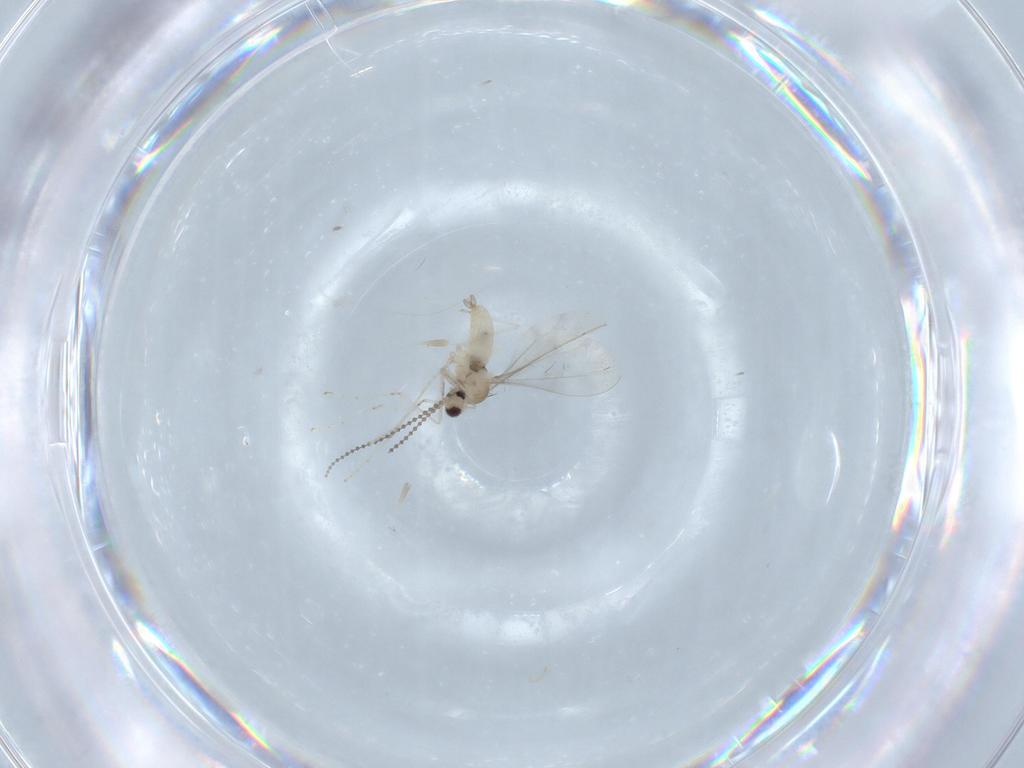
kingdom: Animalia
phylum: Arthropoda
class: Insecta
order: Diptera
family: Cecidomyiidae
